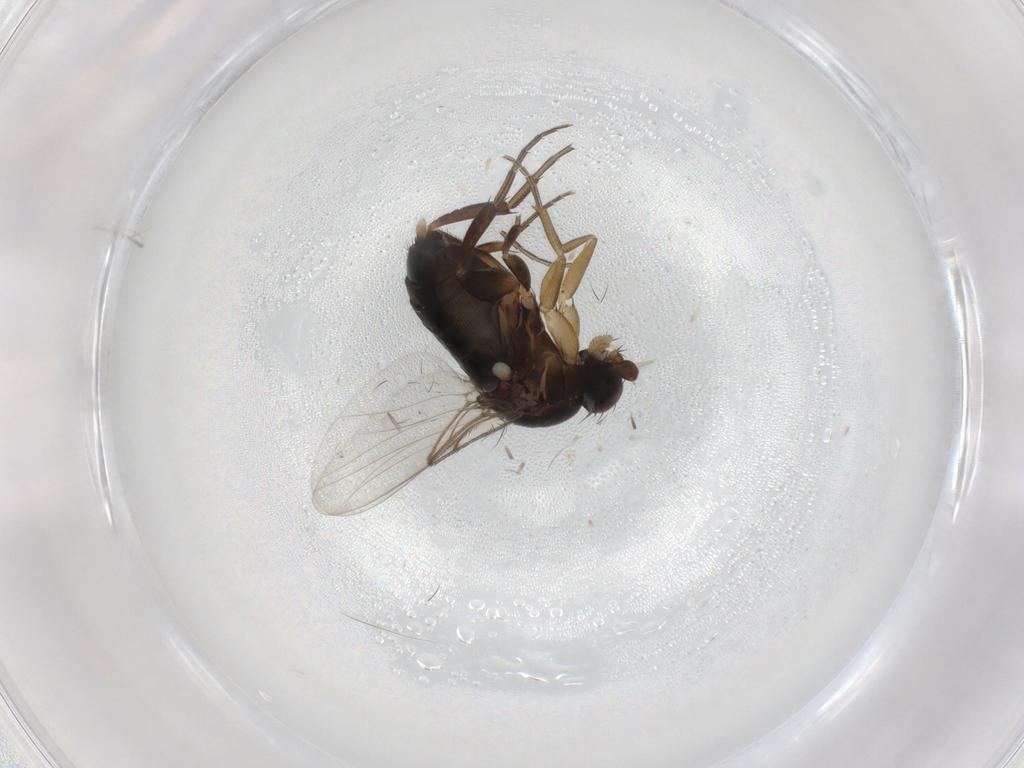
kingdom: Animalia
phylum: Arthropoda
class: Insecta
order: Diptera
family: Phoridae
